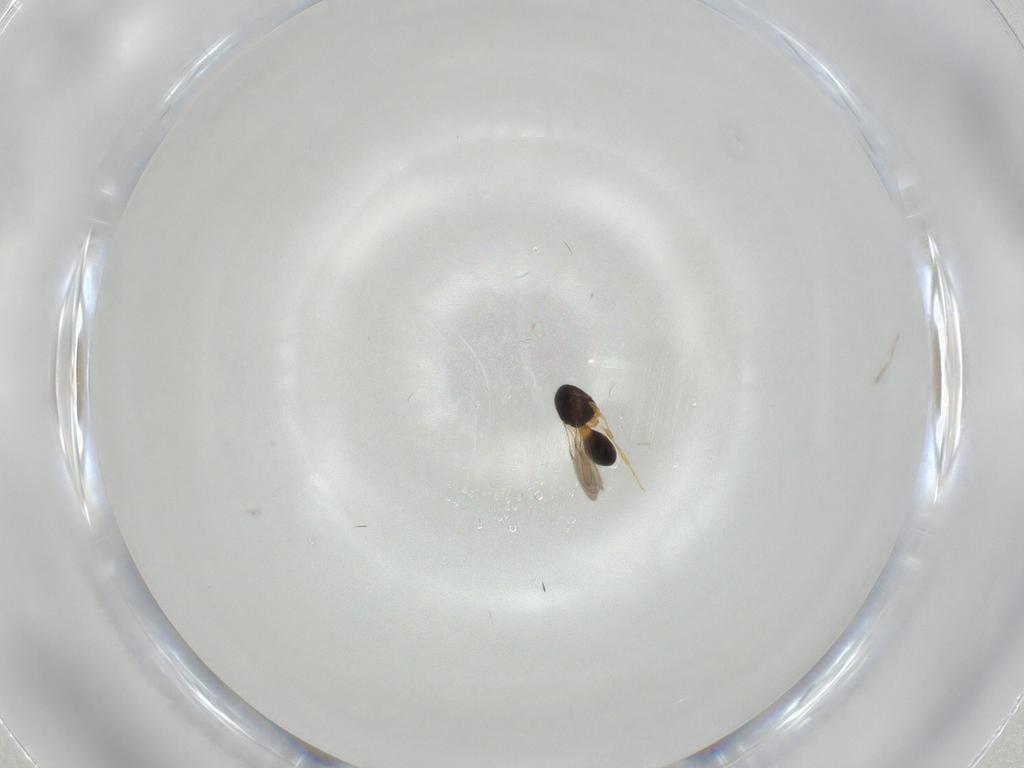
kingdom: Animalia
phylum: Arthropoda
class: Insecta
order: Hymenoptera
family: Scelionidae
